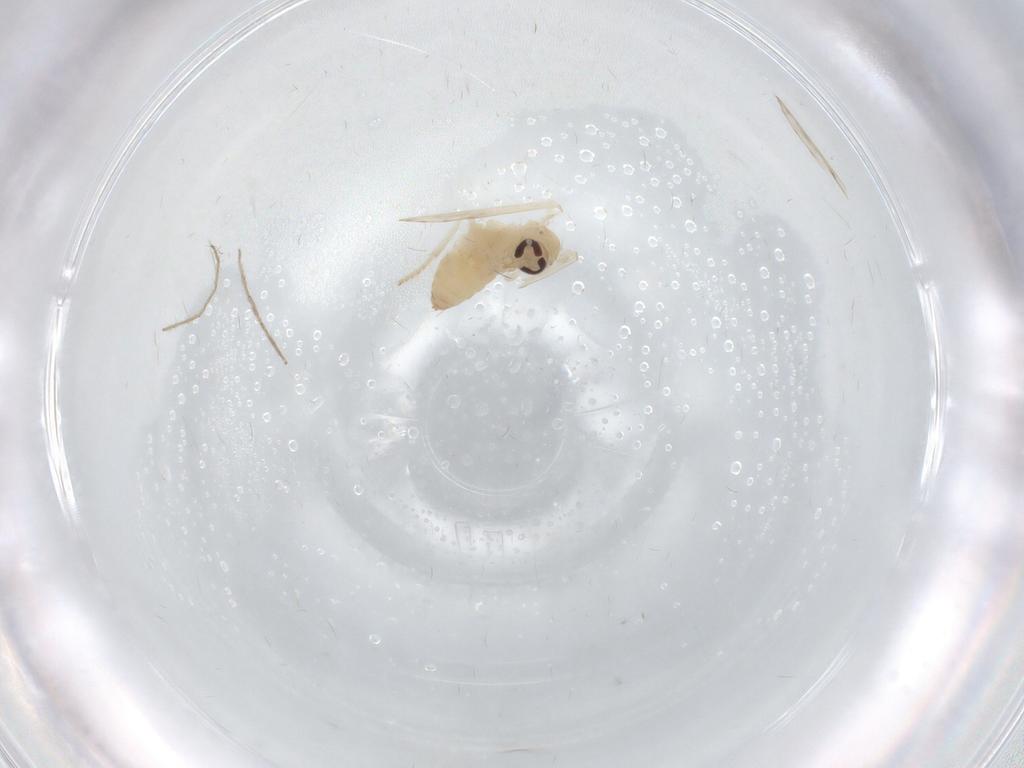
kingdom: Animalia
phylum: Arthropoda
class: Insecta
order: Diptera
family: Psychodidae
